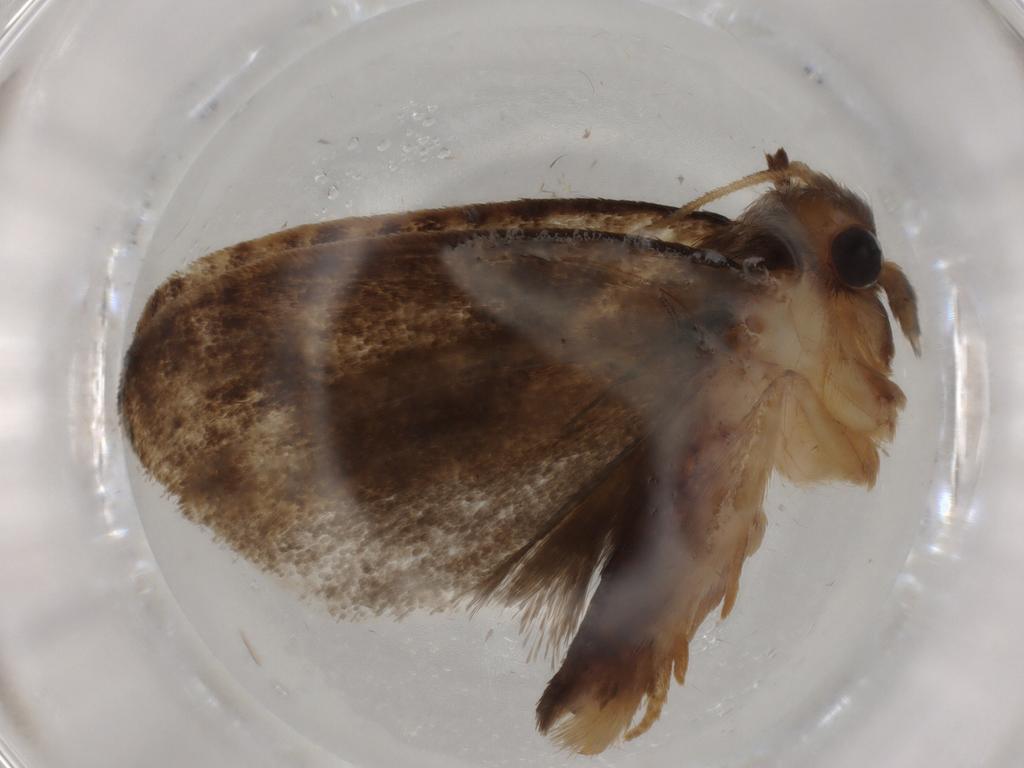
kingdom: Animalia
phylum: Arthropoda
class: Insecta
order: Lepidoptera
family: Tineidae
